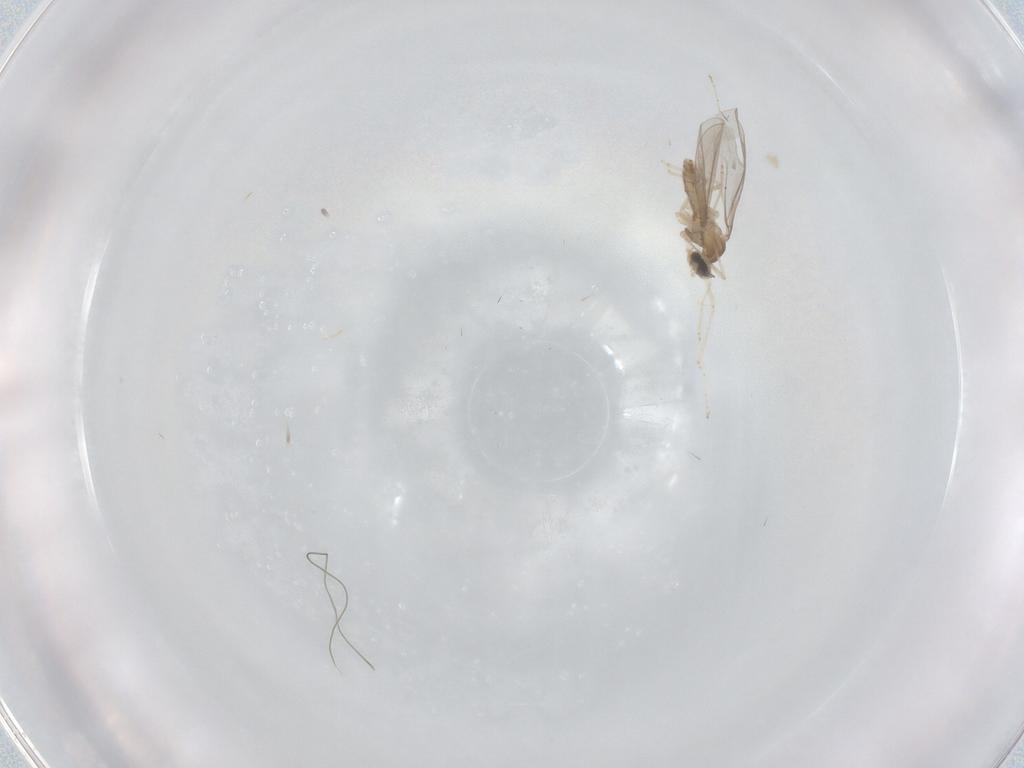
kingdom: Animalia
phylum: Arthropoda
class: Insecta
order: Diptera
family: Cecidomyiidae
